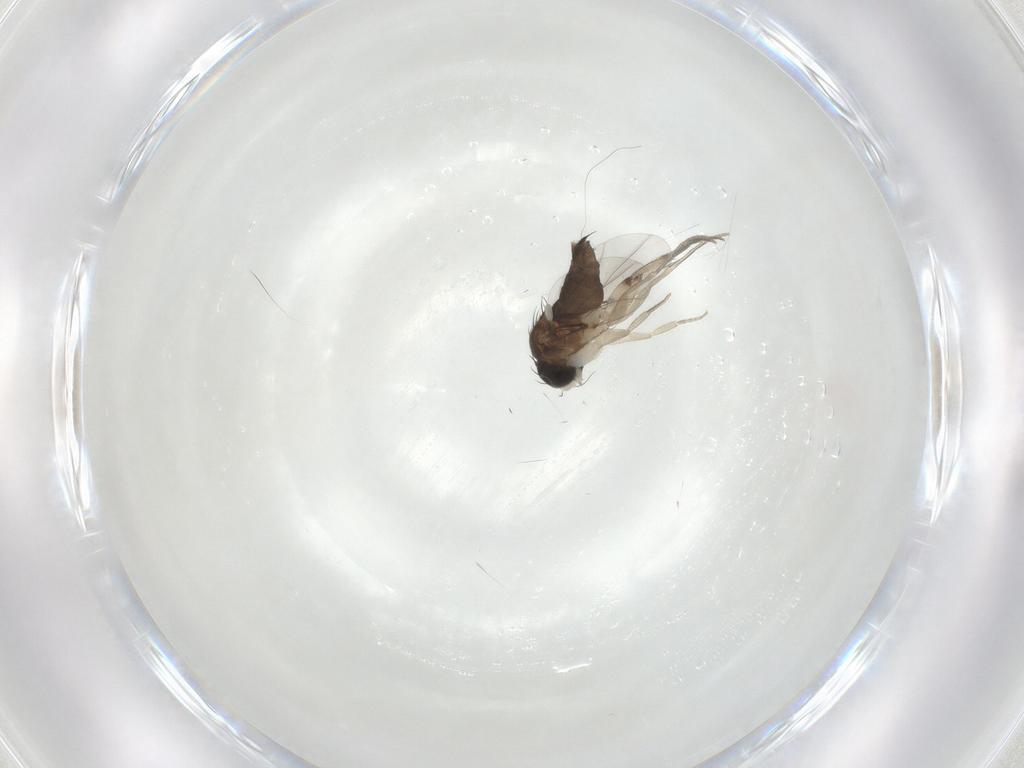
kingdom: Animalia
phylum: Arthropoda
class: Insecta
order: Diptera
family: Phoridae
